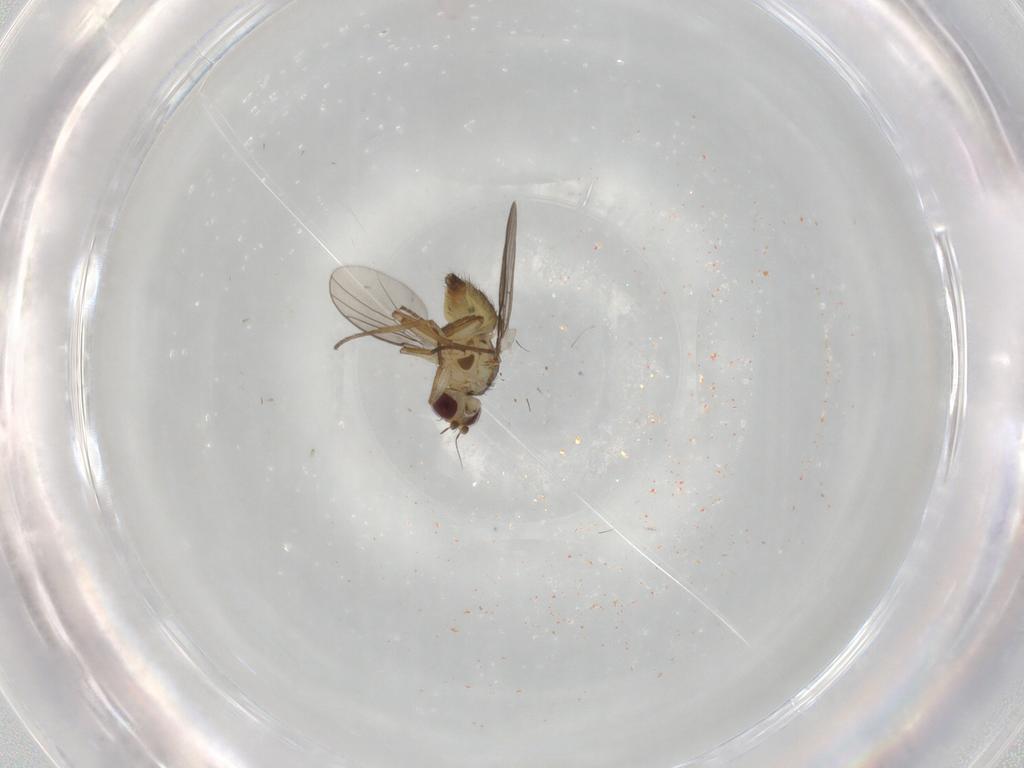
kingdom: Animalia
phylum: Arthropoda
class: Insecta
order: Diptera
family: Agromyzidae
